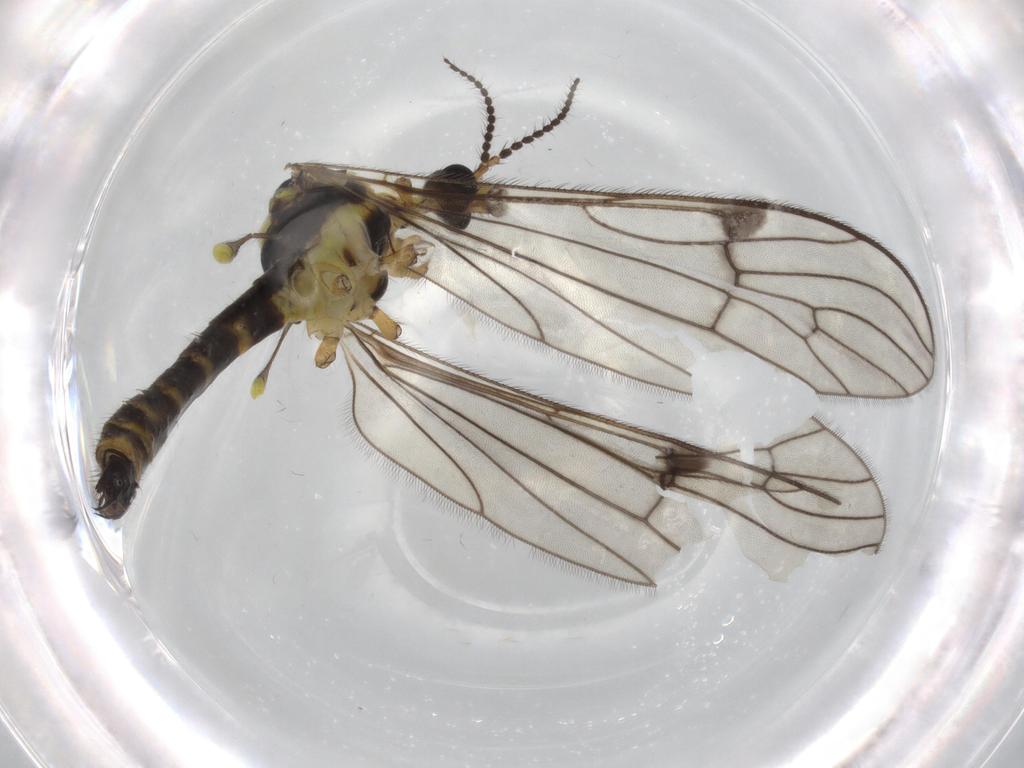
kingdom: Animalia
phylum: Arthropoda
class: Insecta
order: Diptera
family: Limoniidae
